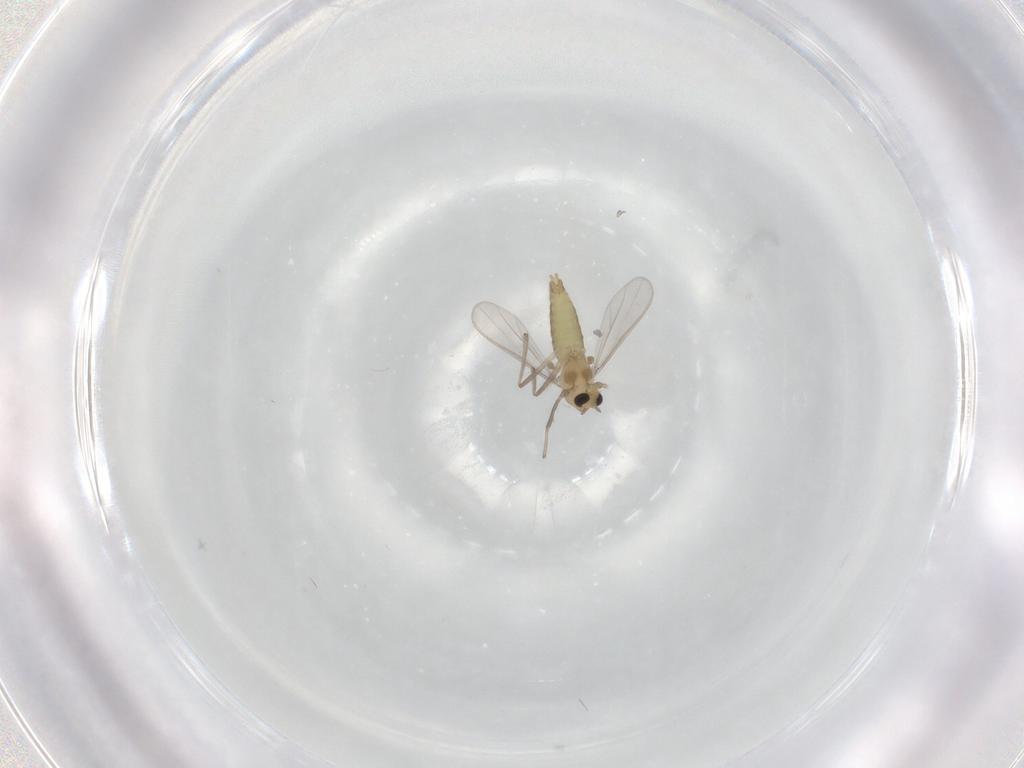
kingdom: Animalia
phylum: Arthropoda
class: Insecta
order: Diptera
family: Chironomidae
